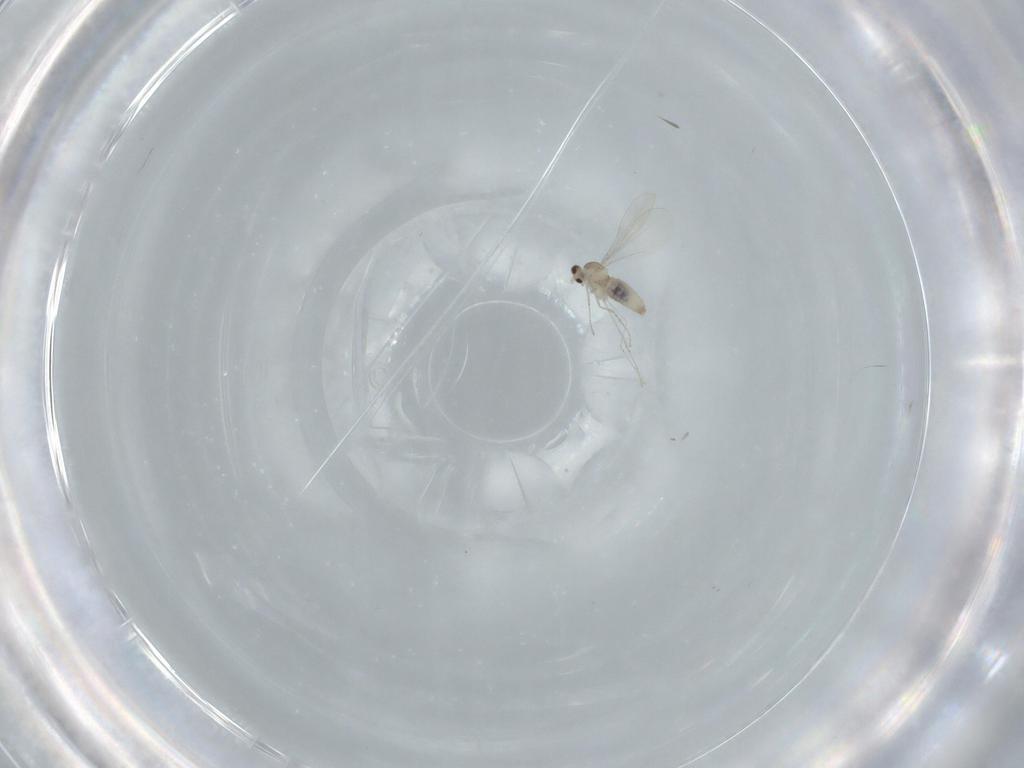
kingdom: Animalia
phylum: Arthropoda
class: Insecta
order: Diptera
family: Cecidomyiidae
